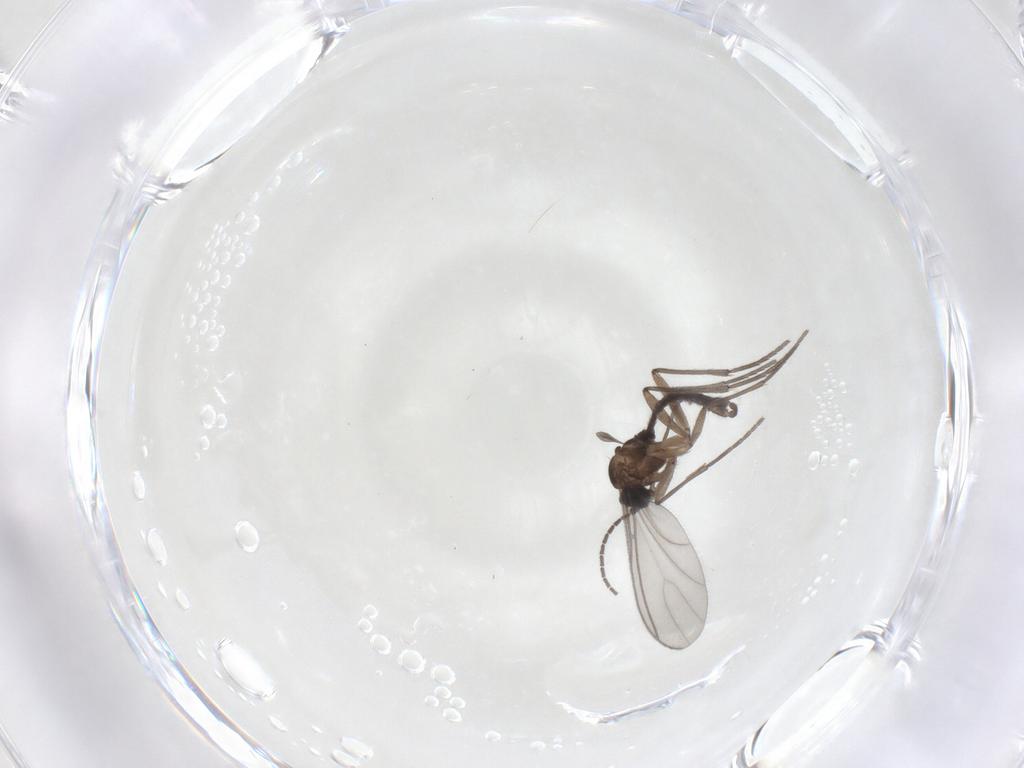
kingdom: Animalia
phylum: Arthropoda
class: Insecta
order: Diptera
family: Sciaridae
